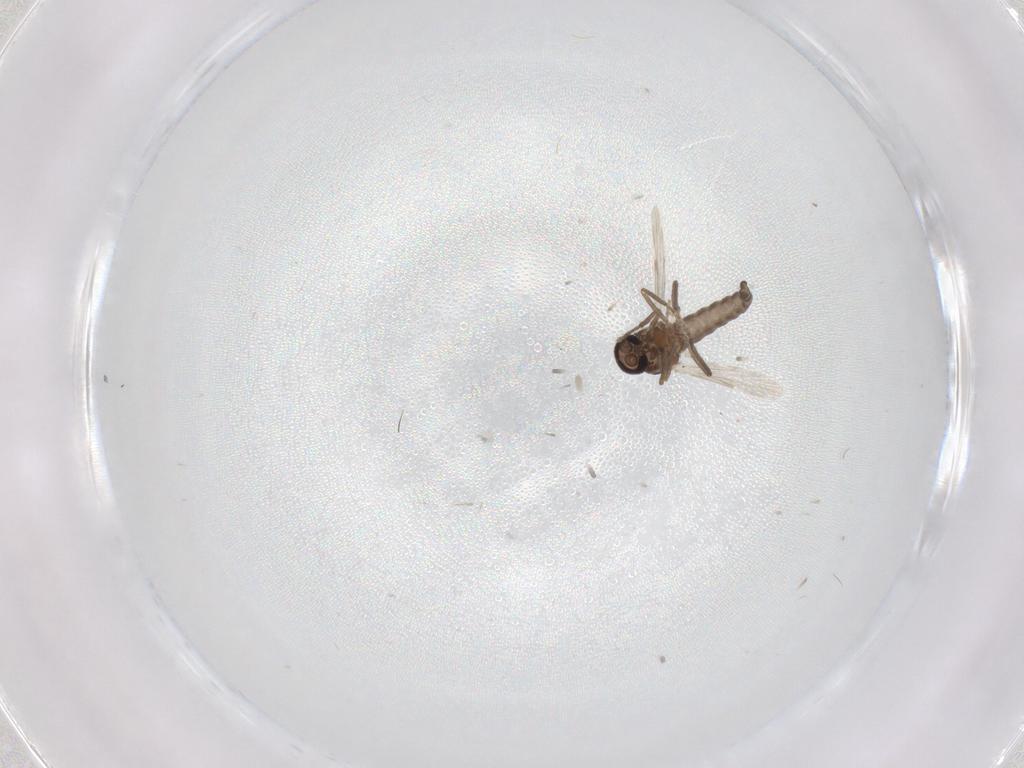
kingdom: Animalia
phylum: Arthropoda
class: Insecta
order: Diptera
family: Ceratopogonidae
